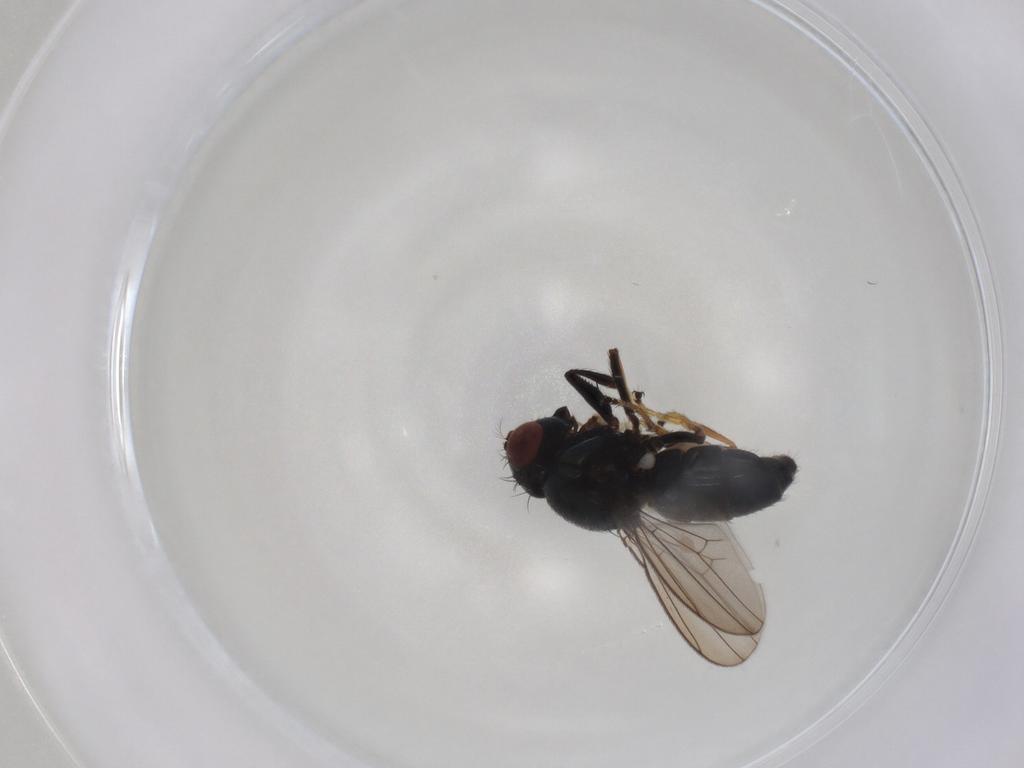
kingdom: Animalia
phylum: Arthropoda
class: Insecta
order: Diptera
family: Ephydridae
